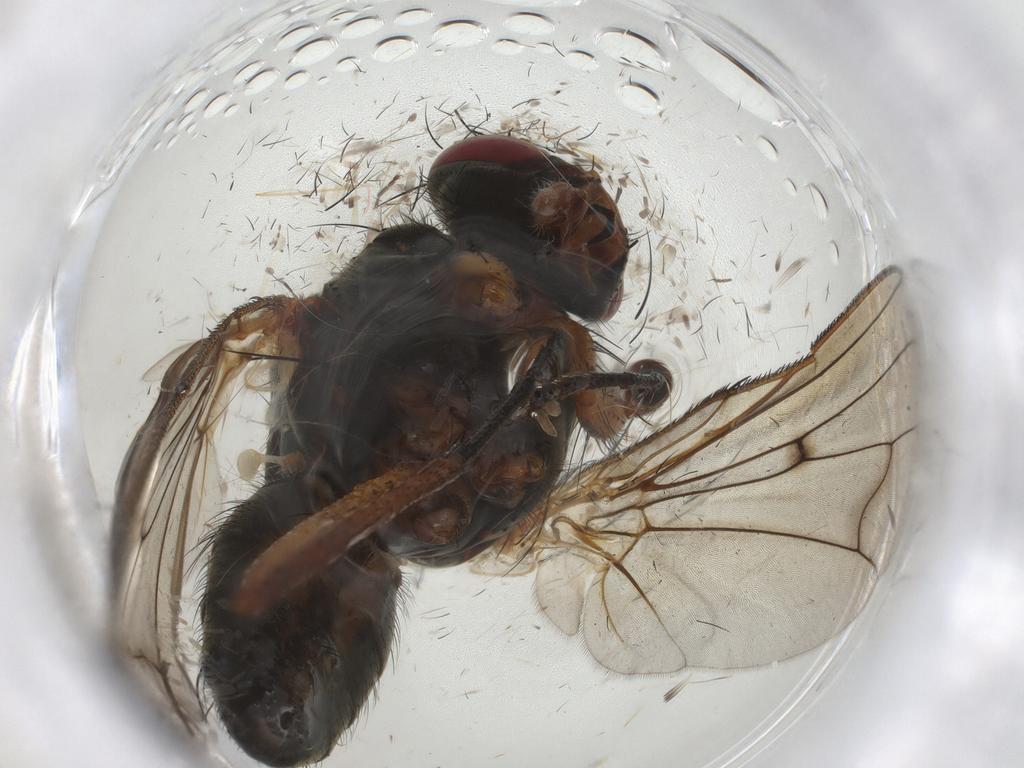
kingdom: Animalia
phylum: Arthropoda
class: Insecta
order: Diptera
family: Anthomyiidae
